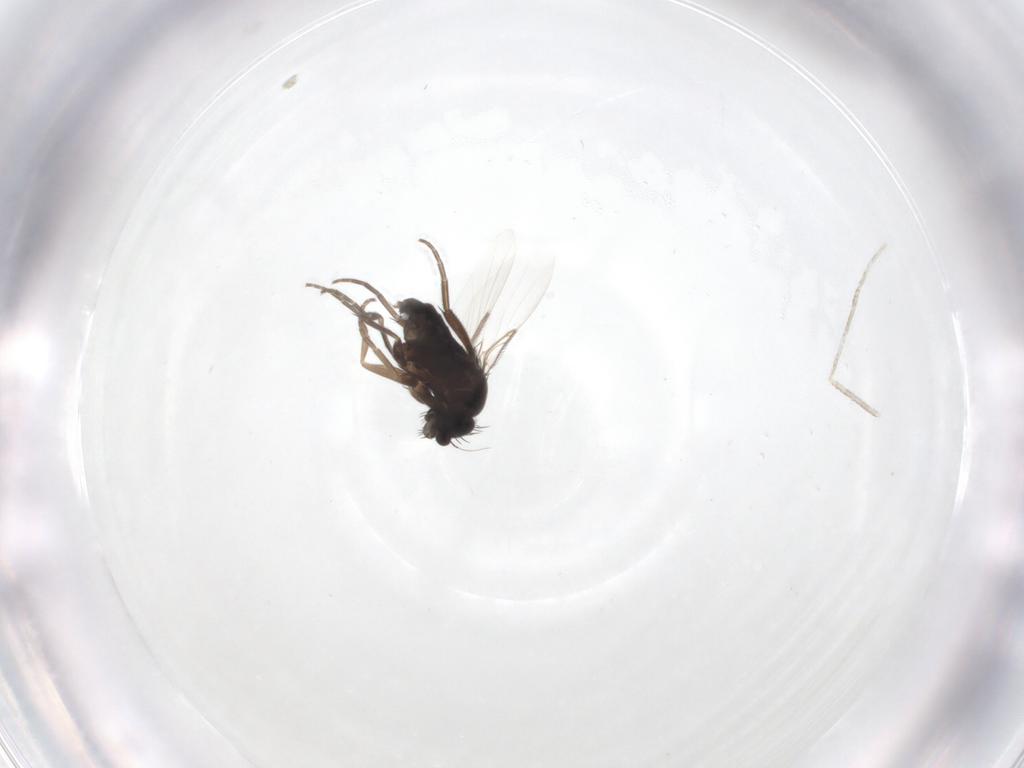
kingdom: Animalia
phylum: Arthropoda
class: Insecta
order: Diptera
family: Phoridae
